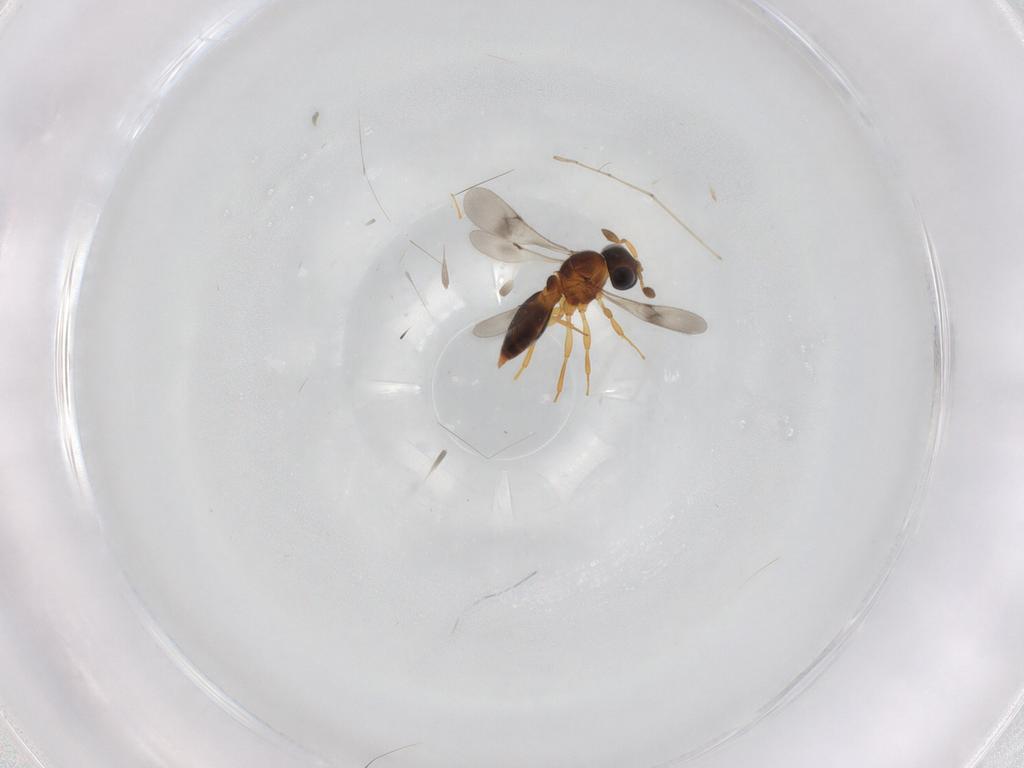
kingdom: Animalia
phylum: Arthropoda
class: Insecta
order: Hymenoptera
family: Scelionidae
